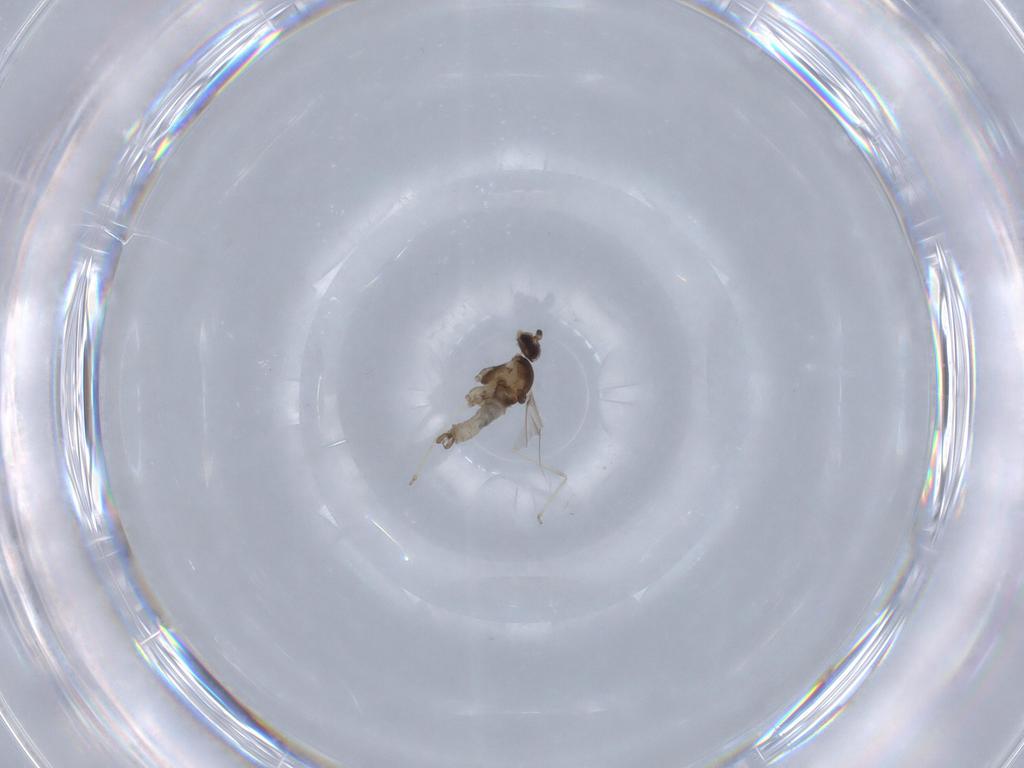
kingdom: Animalia
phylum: Arthropoda
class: Insecta
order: Diptera
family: Cecidomyiidae
